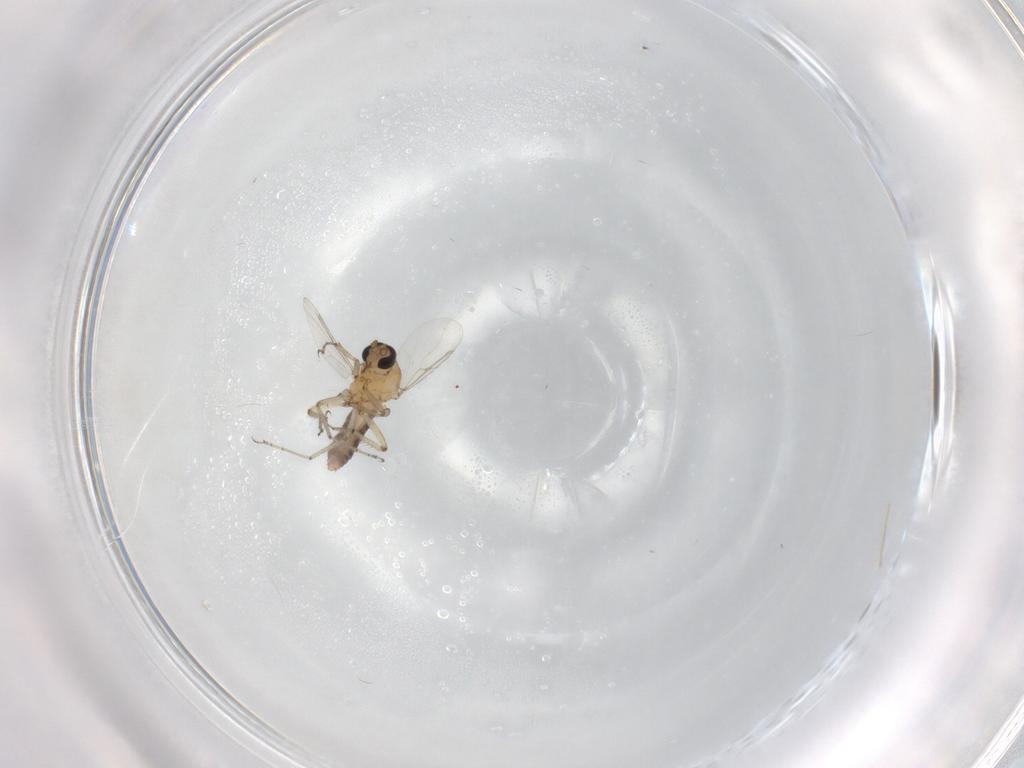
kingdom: Animalia
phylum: Arthropoda
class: Insecta
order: Diptera
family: Ceratopogonidae
